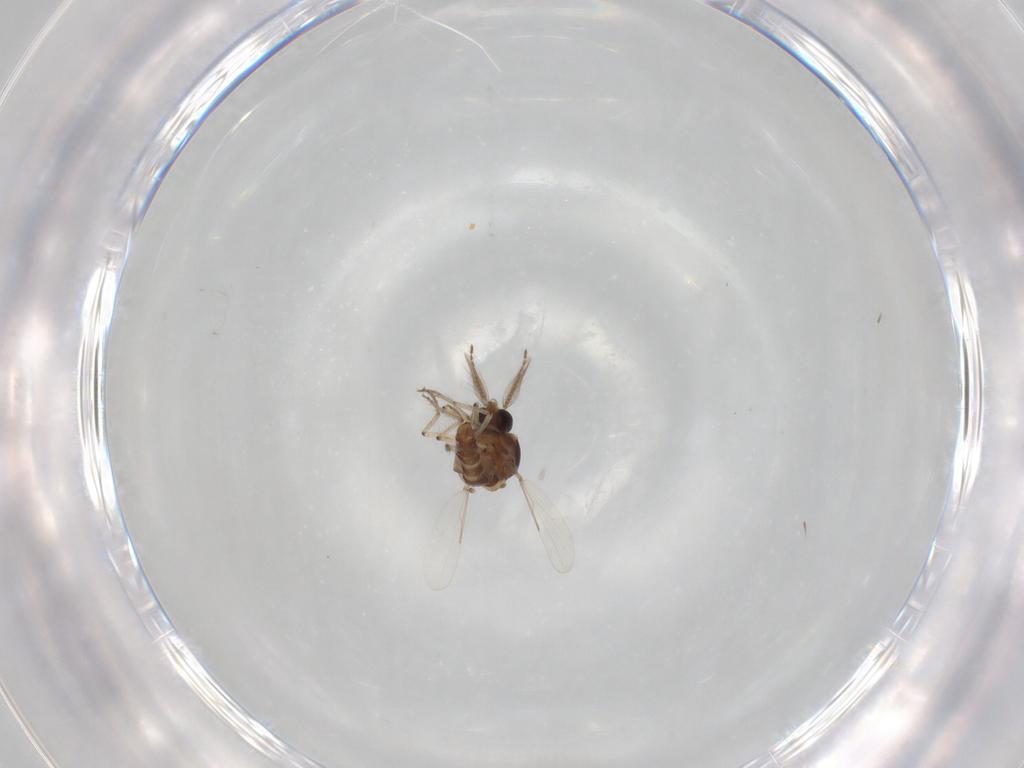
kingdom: Animalia
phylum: Arthropoda
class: Insecta
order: Diptera
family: Ceratopogonidae
